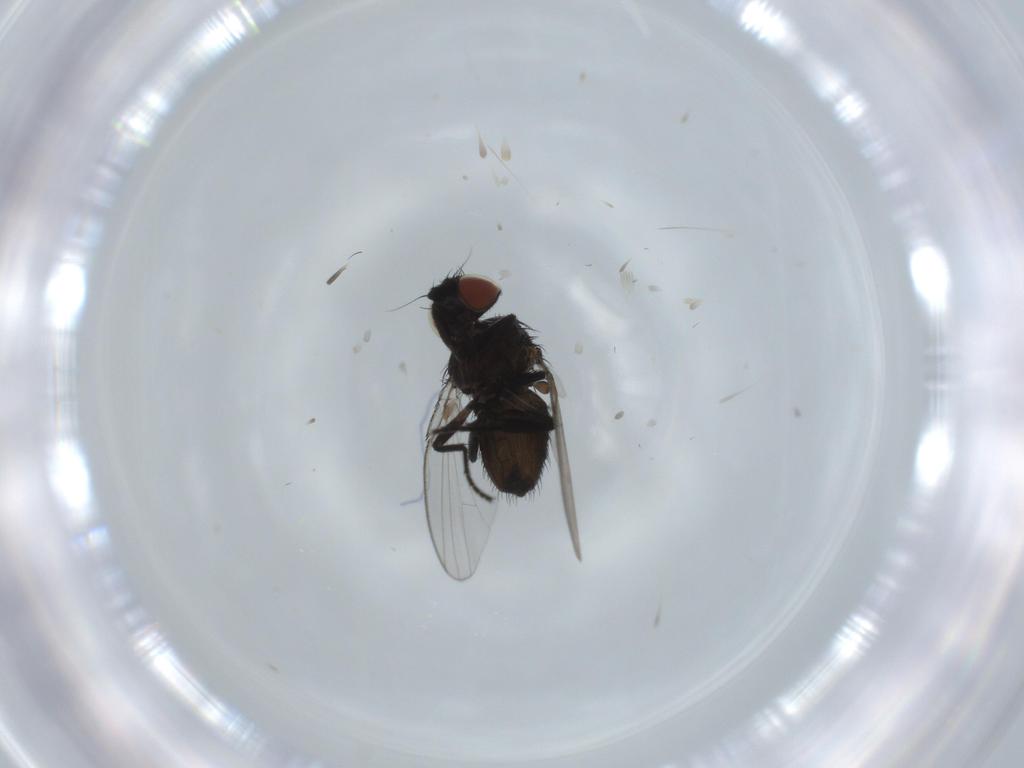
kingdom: Animalia
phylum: Arthropoda
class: Insecta
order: Diptera
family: Milichiidae
